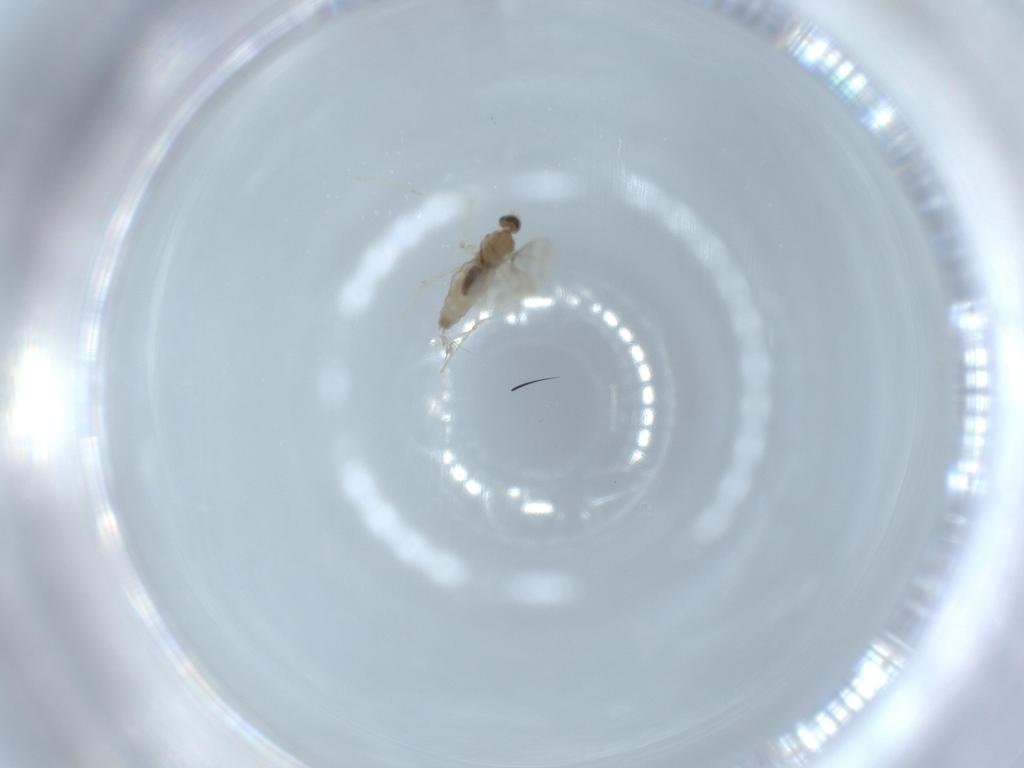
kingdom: Animalia
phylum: Arthropoda
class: Insecta
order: Diptera
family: Cecidomyiidae
